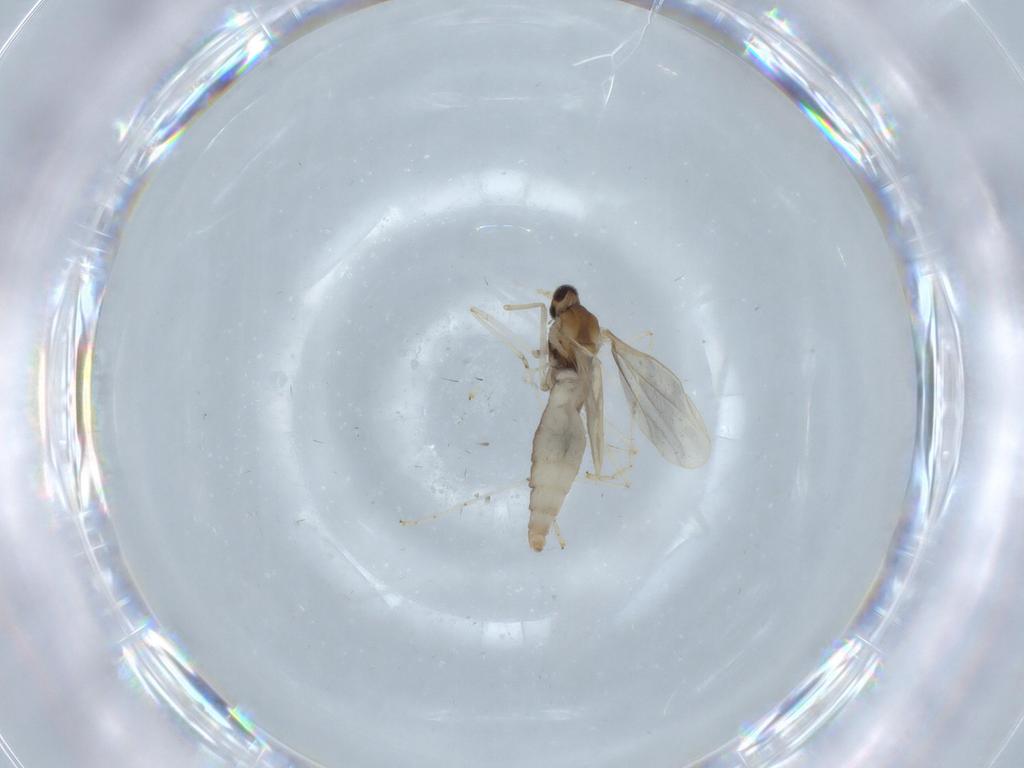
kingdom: Animalia
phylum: Arthropoda
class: Insecta
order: Diptera
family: Cecidomyiidae
